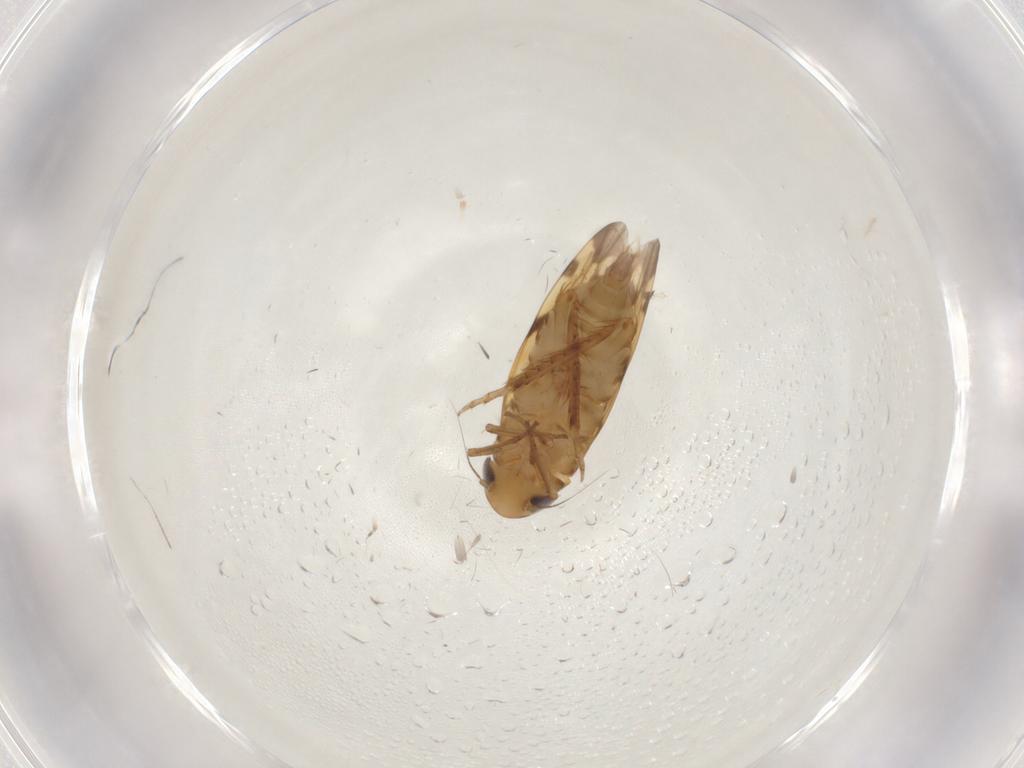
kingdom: Animalia
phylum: Arthropoda
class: Insecta
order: Hemiptera
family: Cicadellidae
